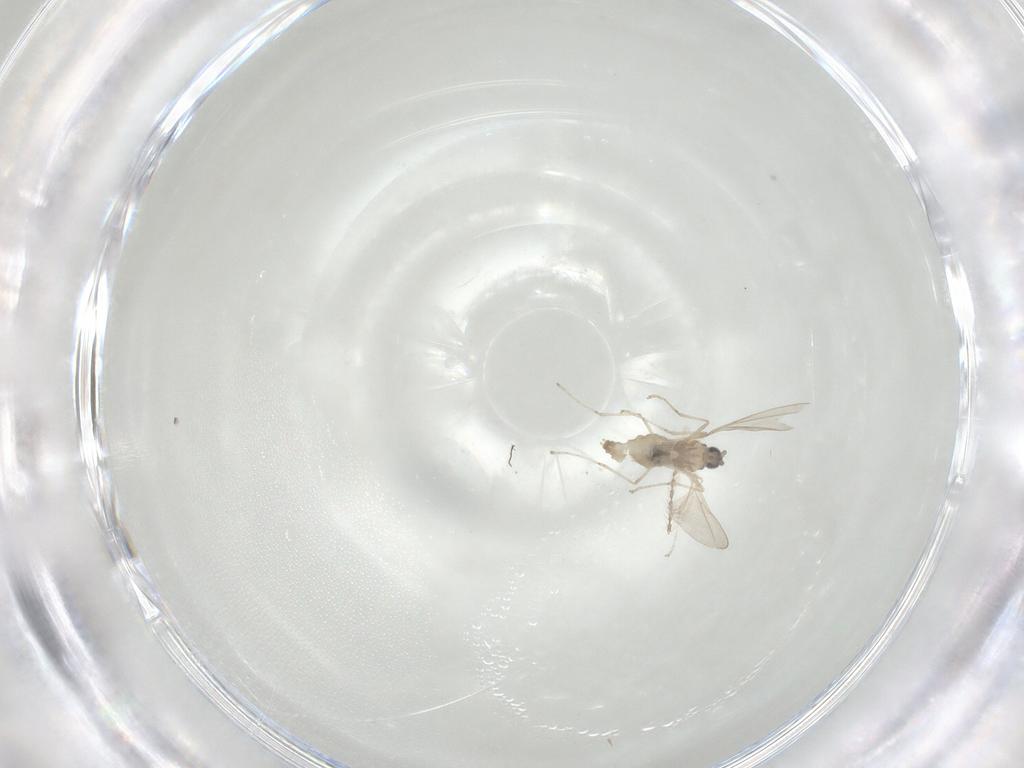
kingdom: Animalia
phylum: Arthropoda
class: Insecta
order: Diptera
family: Cecidomyiidae
